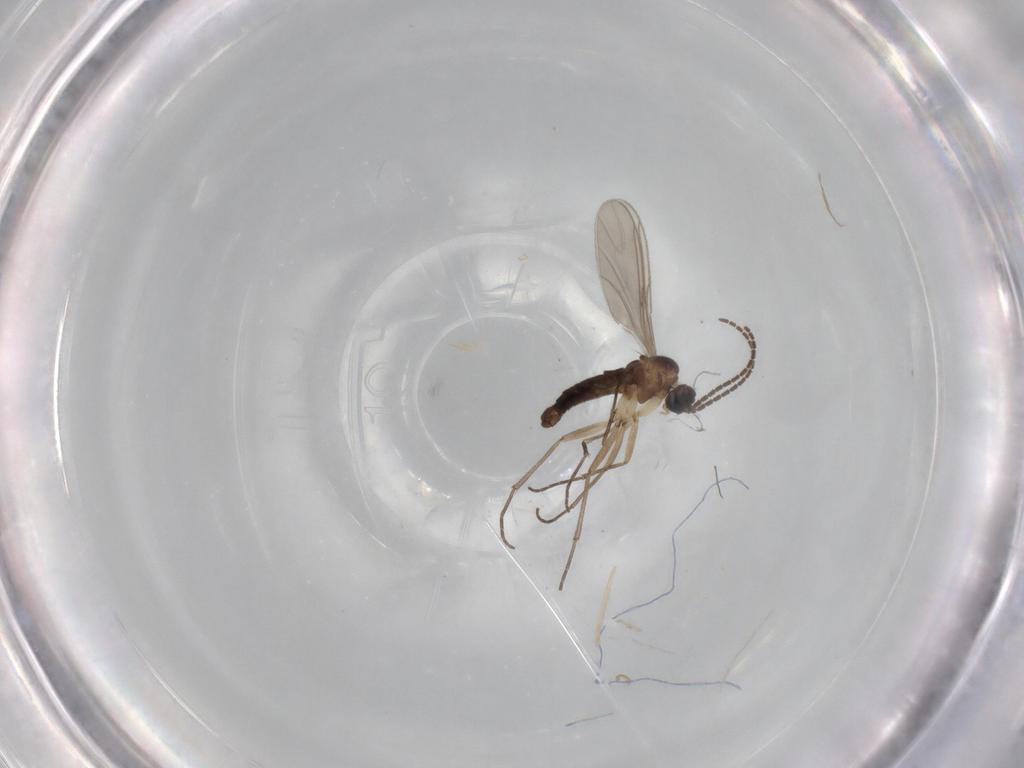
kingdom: Animalia
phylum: Arthropoda
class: Insecta
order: Diptera
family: Sciaridae
